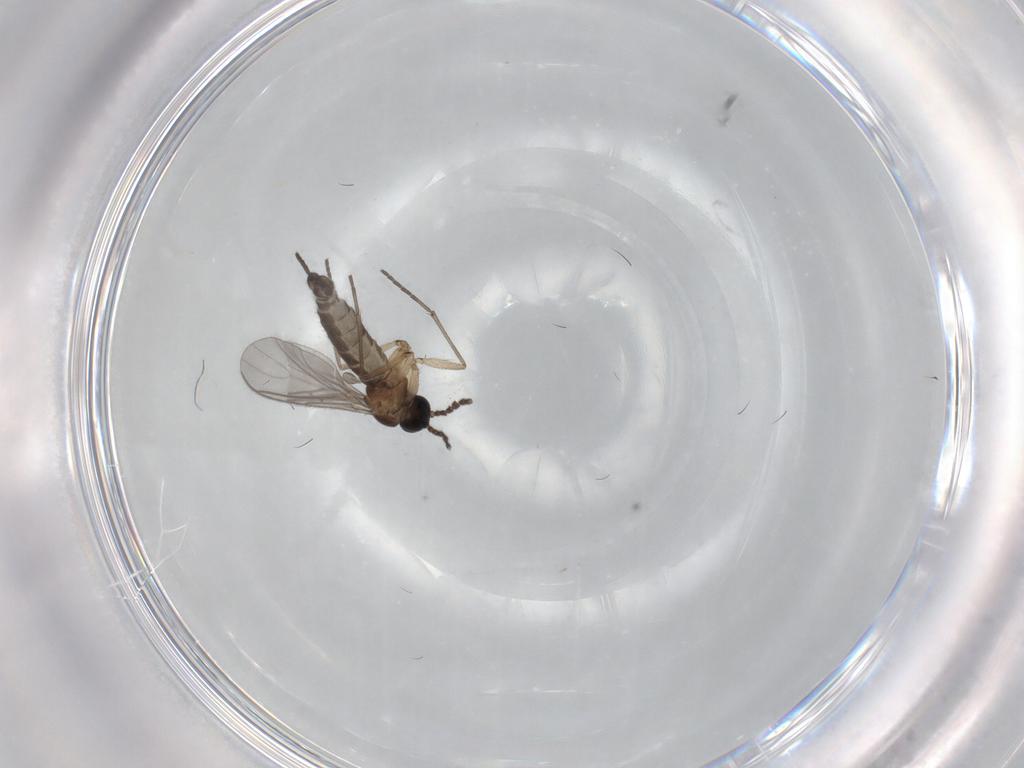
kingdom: Animalia
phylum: Arthropoda
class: Insecta
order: Diptera
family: Sciaridae
